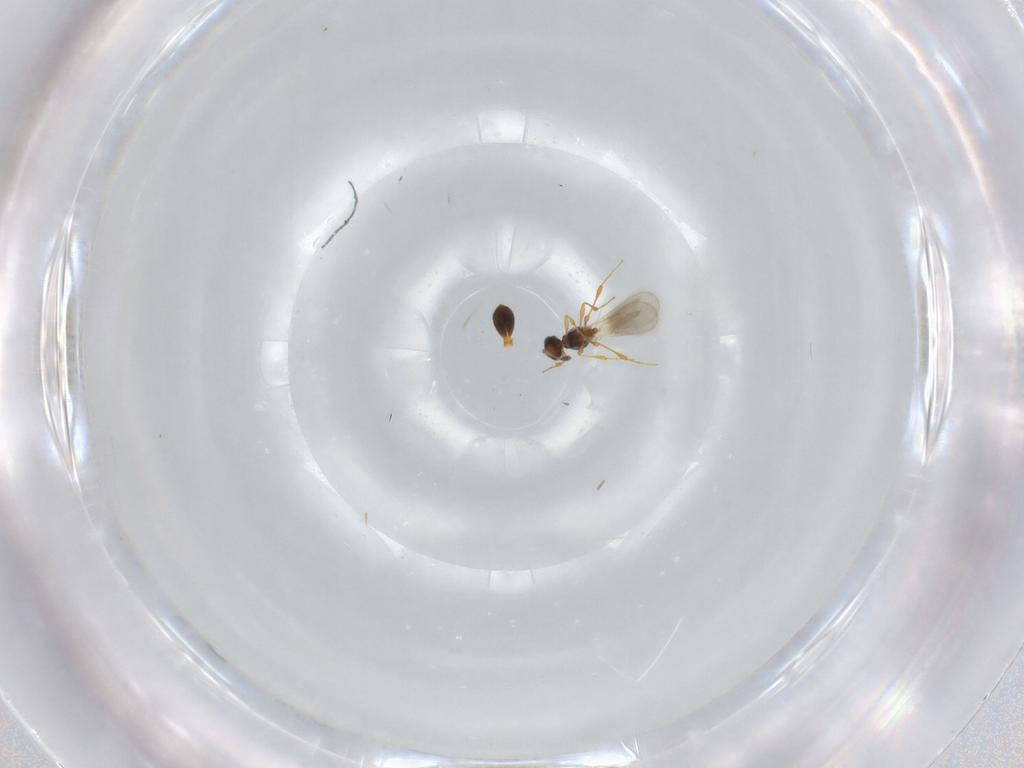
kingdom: Animalia
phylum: Arthropoda
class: Insecta
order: Hymenoptera
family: Platygastridae
